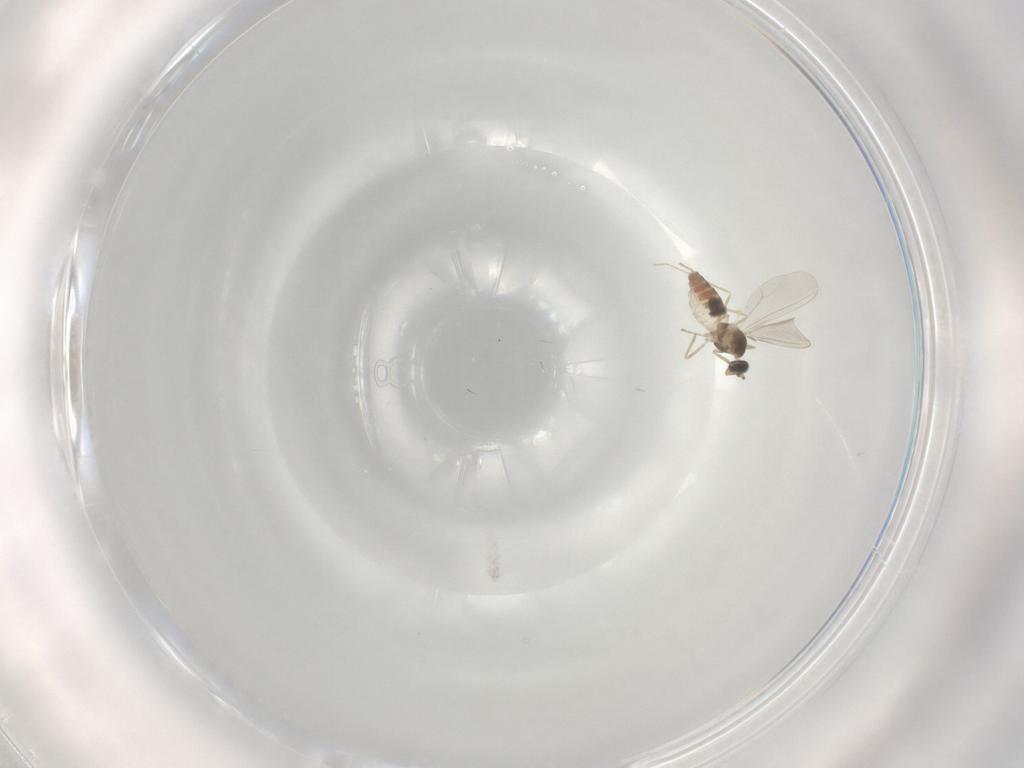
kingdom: Animalia
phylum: Arthropoda
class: Insecta
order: Diptera
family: Cecidomyiidae
